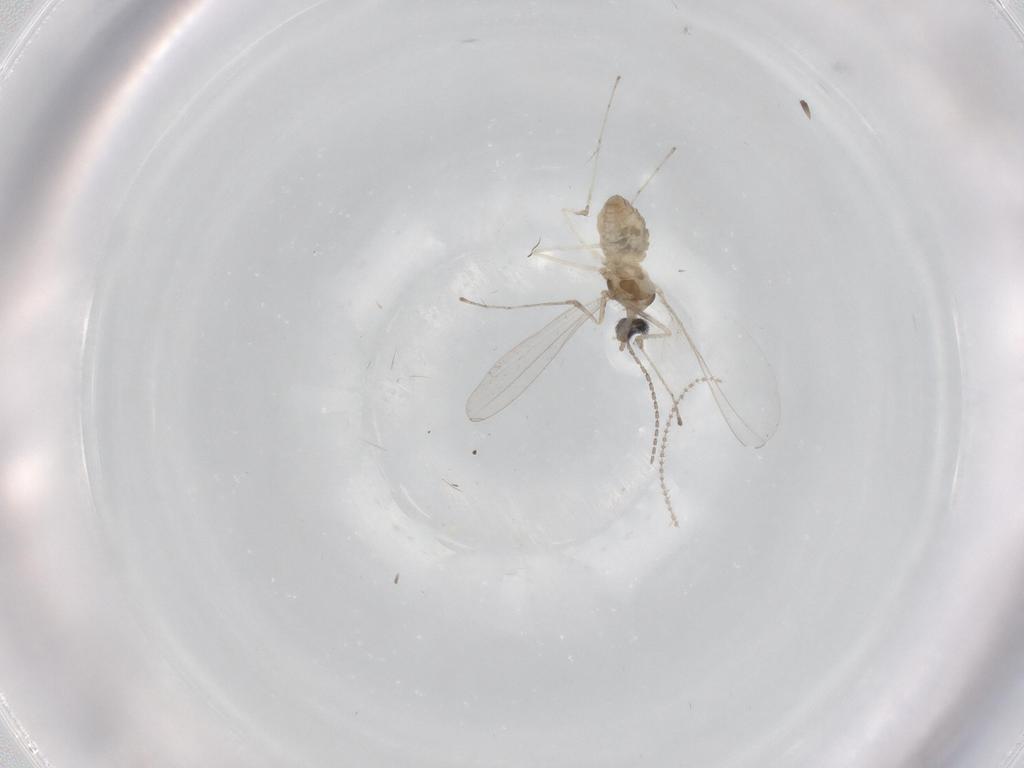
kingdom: Animalia
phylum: Arthropoda
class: Insecta
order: Diptera
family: Cecidomyiidae
